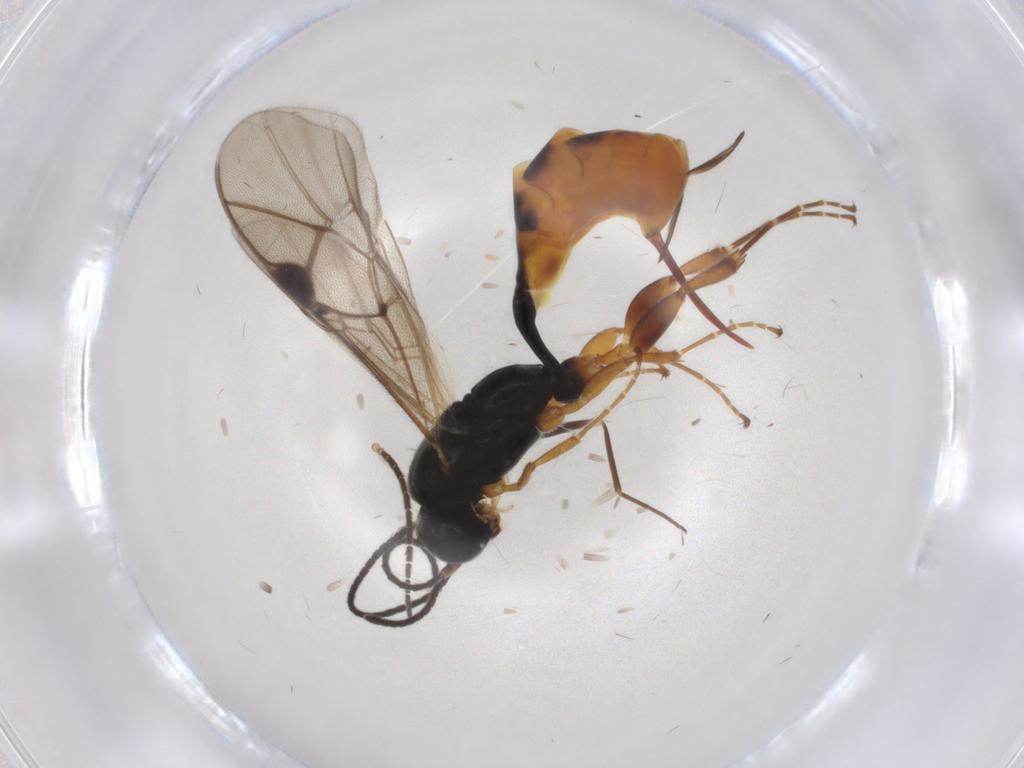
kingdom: Animalia
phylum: Arthropoda
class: Insecta
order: Hymenoptera
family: Ichneumonidae
